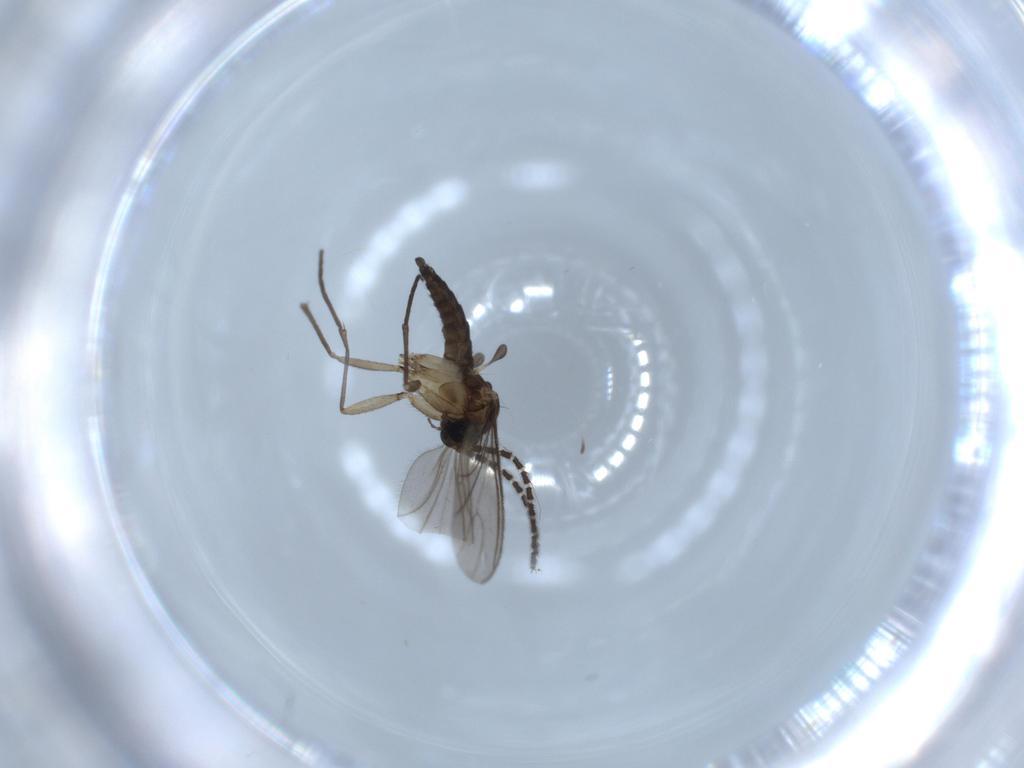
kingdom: Animalia
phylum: Arthropoda
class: Insecta
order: Diptera
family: Sciaridae
